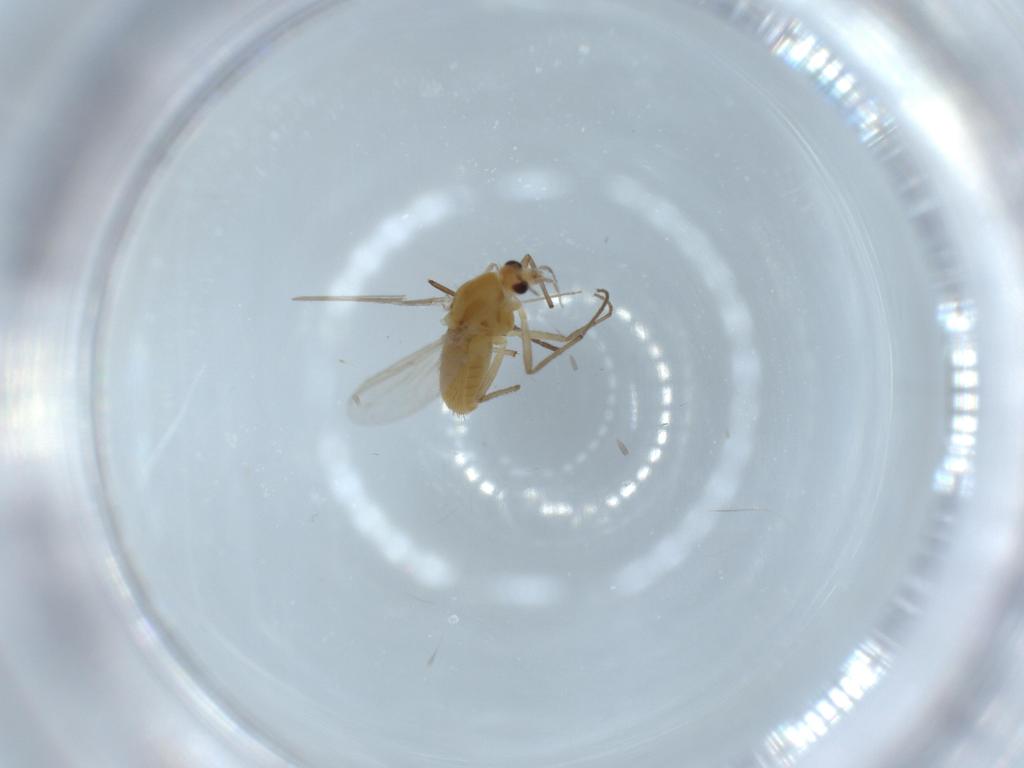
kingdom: Animalia
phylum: Arthropoda
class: Insecta
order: Diptera
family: Chironomidae
